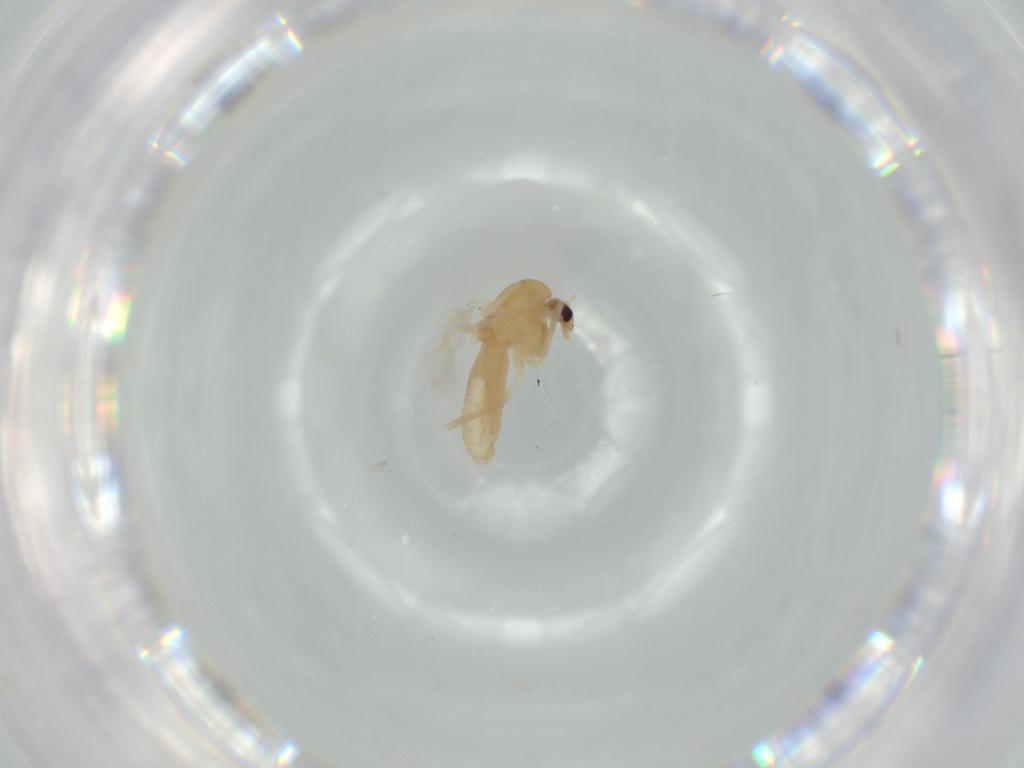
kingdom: Animalia
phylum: Arthropoda
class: Insecta
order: Diptera
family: Chironomidae
